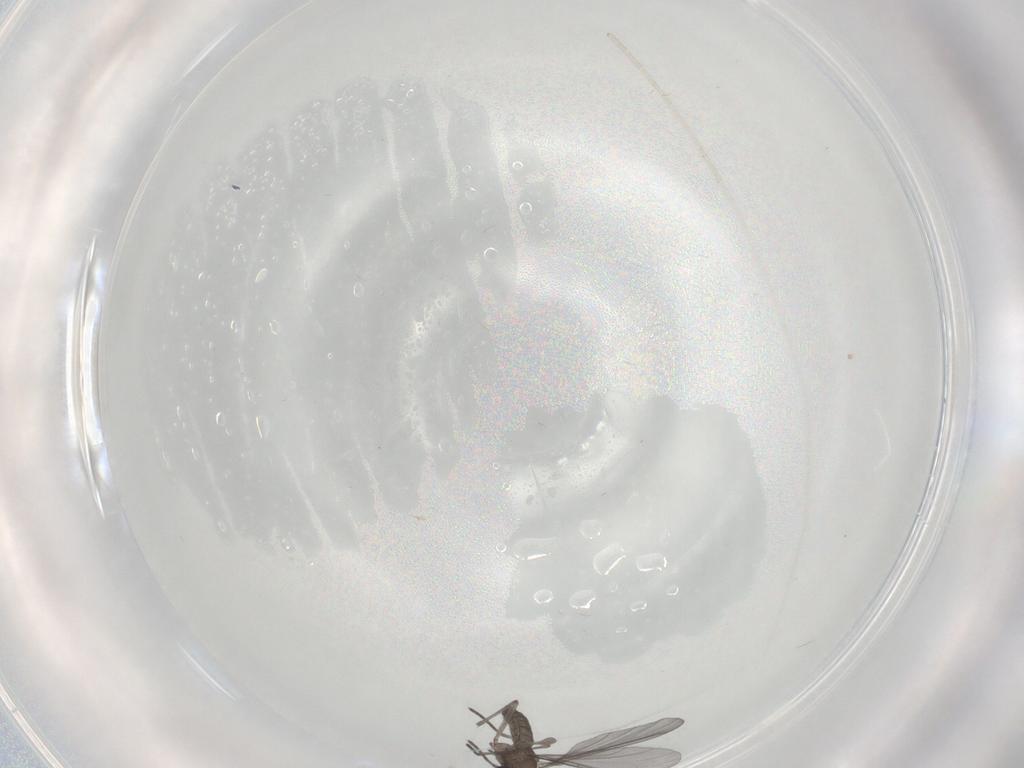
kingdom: Animalia
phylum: Arthropoda
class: Insecta
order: Diptera
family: Sciaridae
